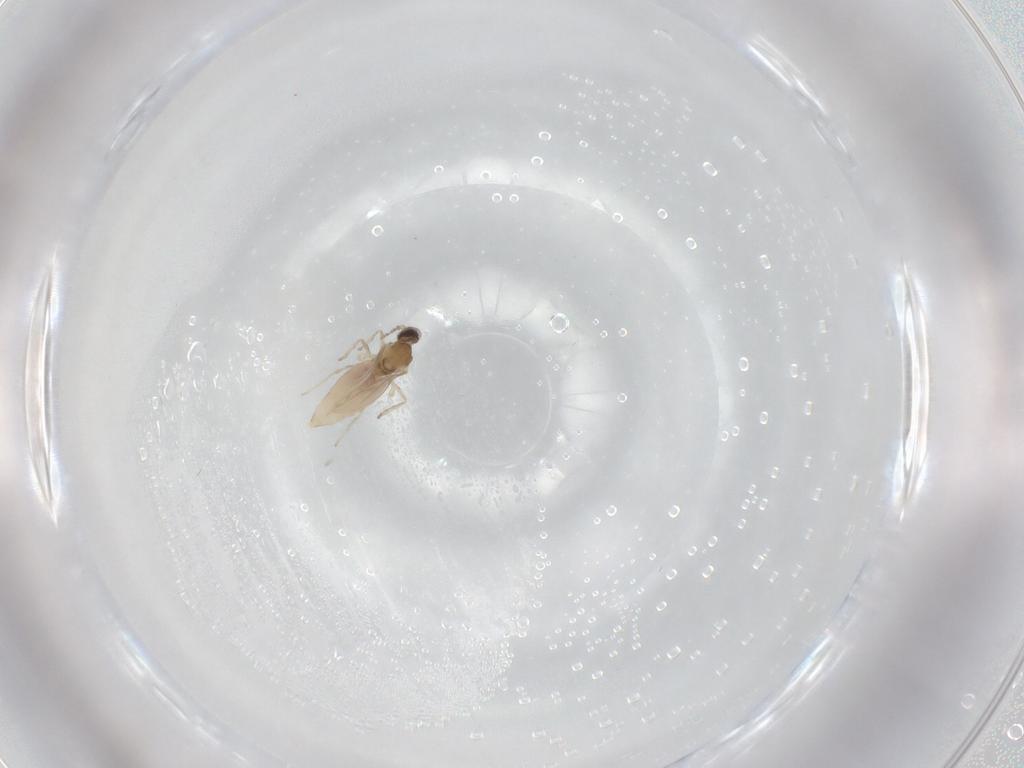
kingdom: Animalia
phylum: Arthropoda
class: Insecta
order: Diptera
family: Cecidomyiidae
